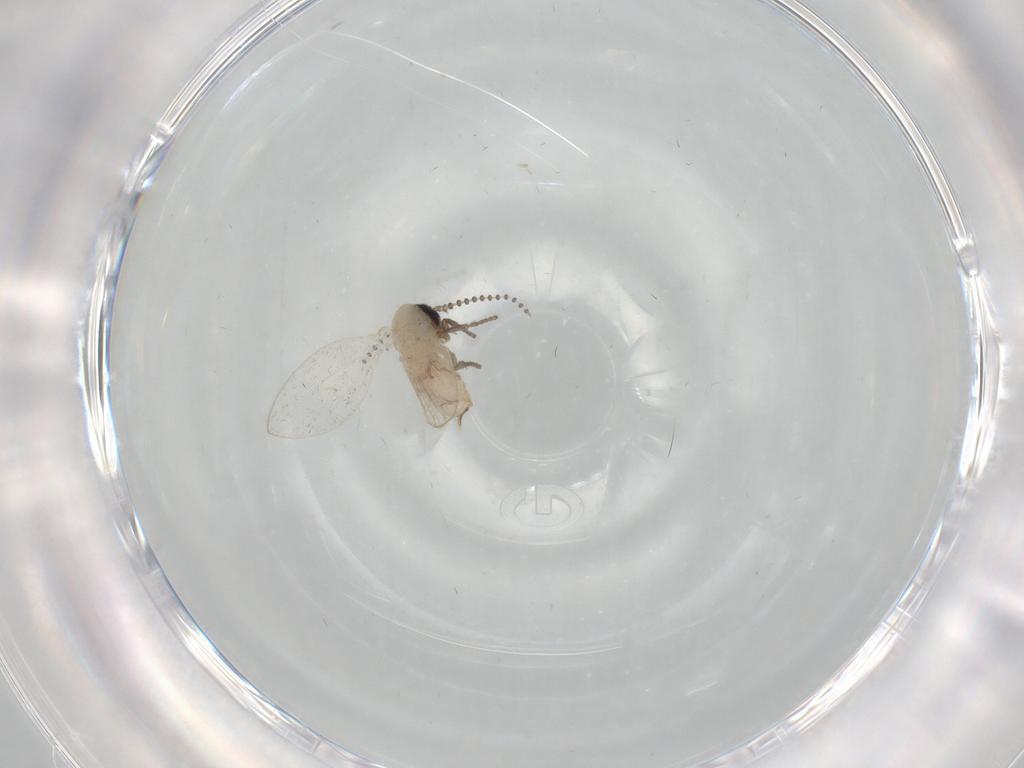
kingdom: Animalia
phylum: Arthropoda
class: Insecta
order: Diptera
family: Psychodidae
